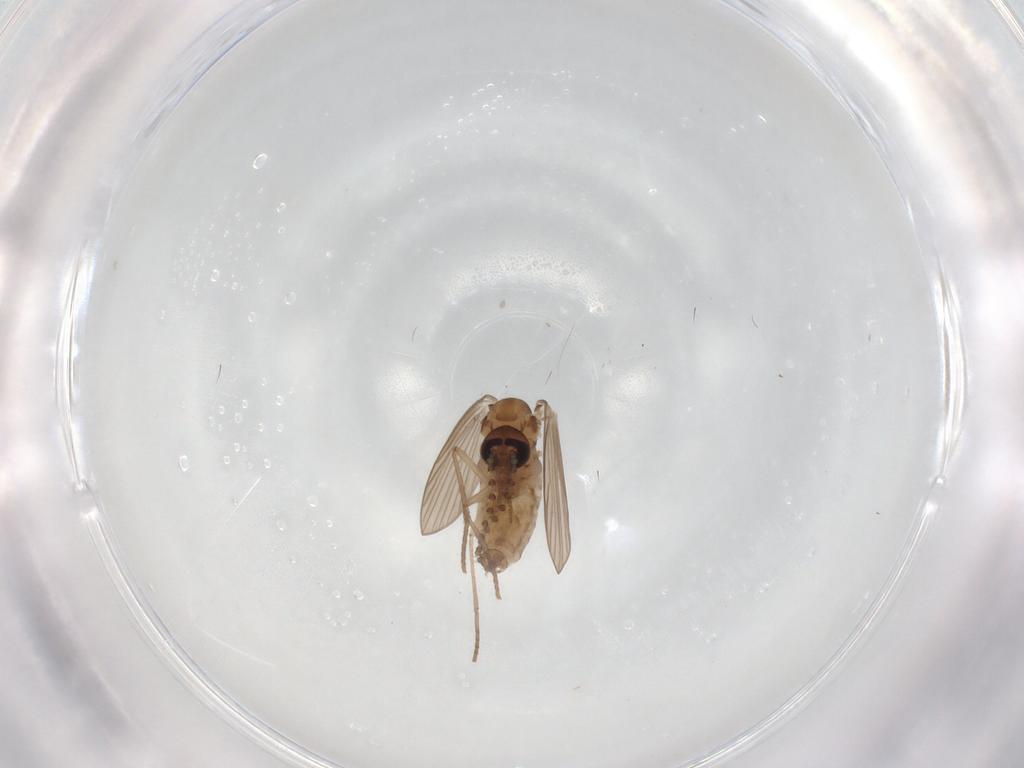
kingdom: Animalia
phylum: Arthropoda
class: Insecta
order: Diptera
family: Psychodidae
